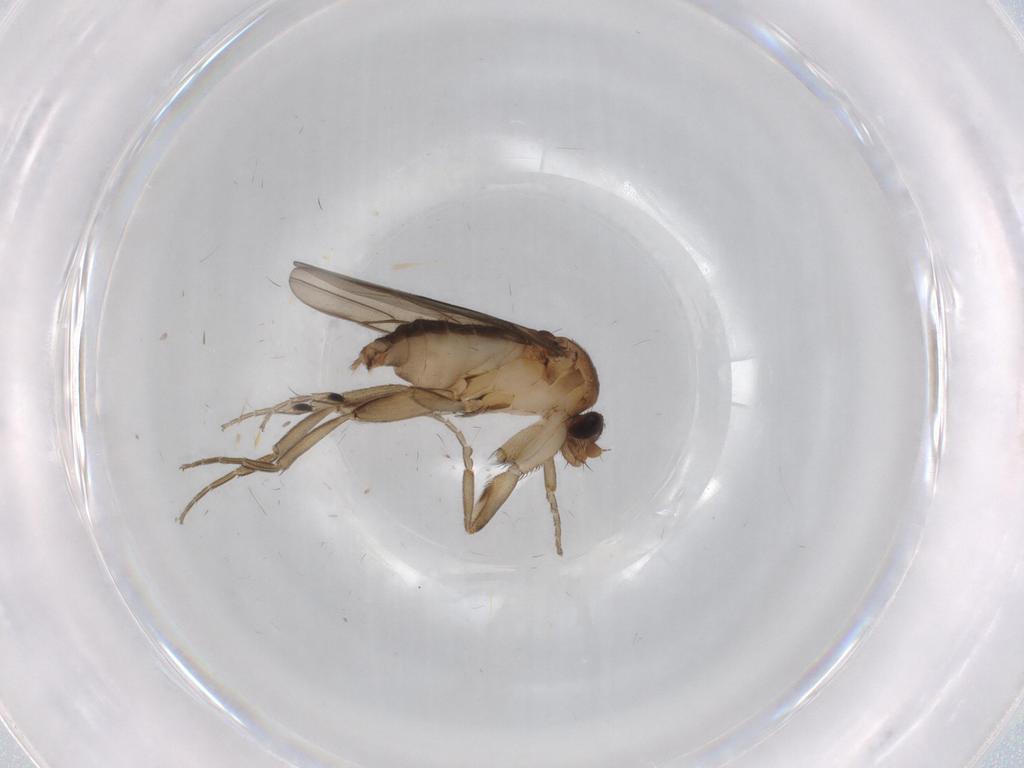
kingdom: Animalia
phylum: Arthropoda
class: Insecta
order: Diptera
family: Phoridae
